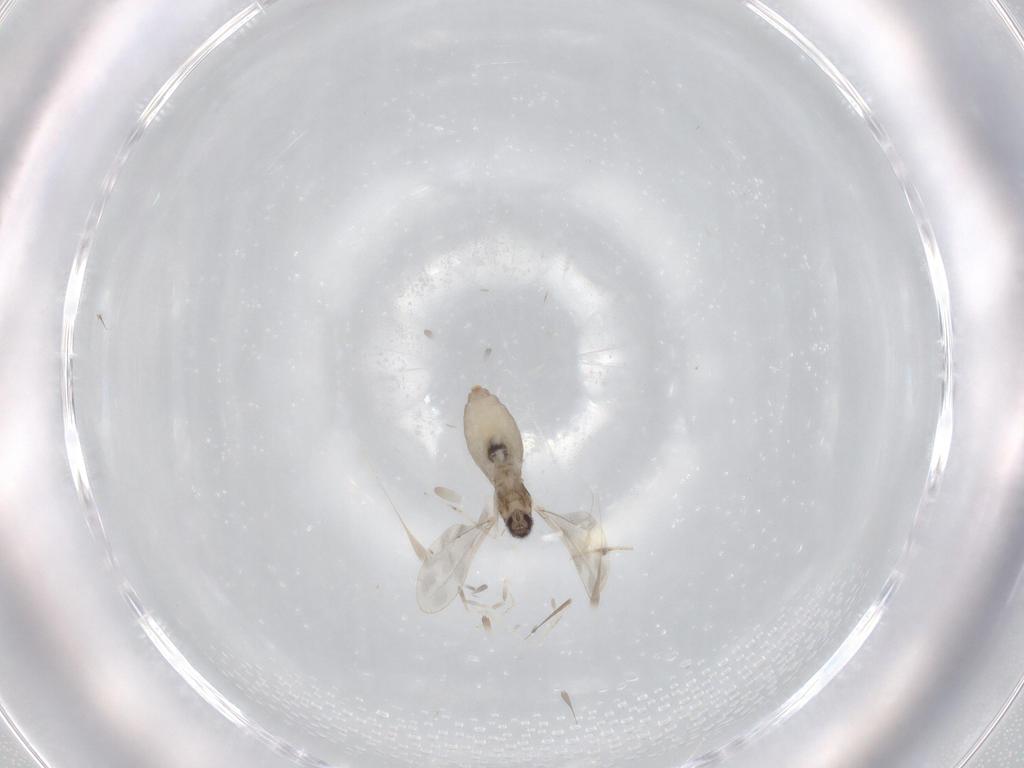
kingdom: Animalia
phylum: Arthropoda
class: Insecta
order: Diptera
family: Cecidomyiidae
